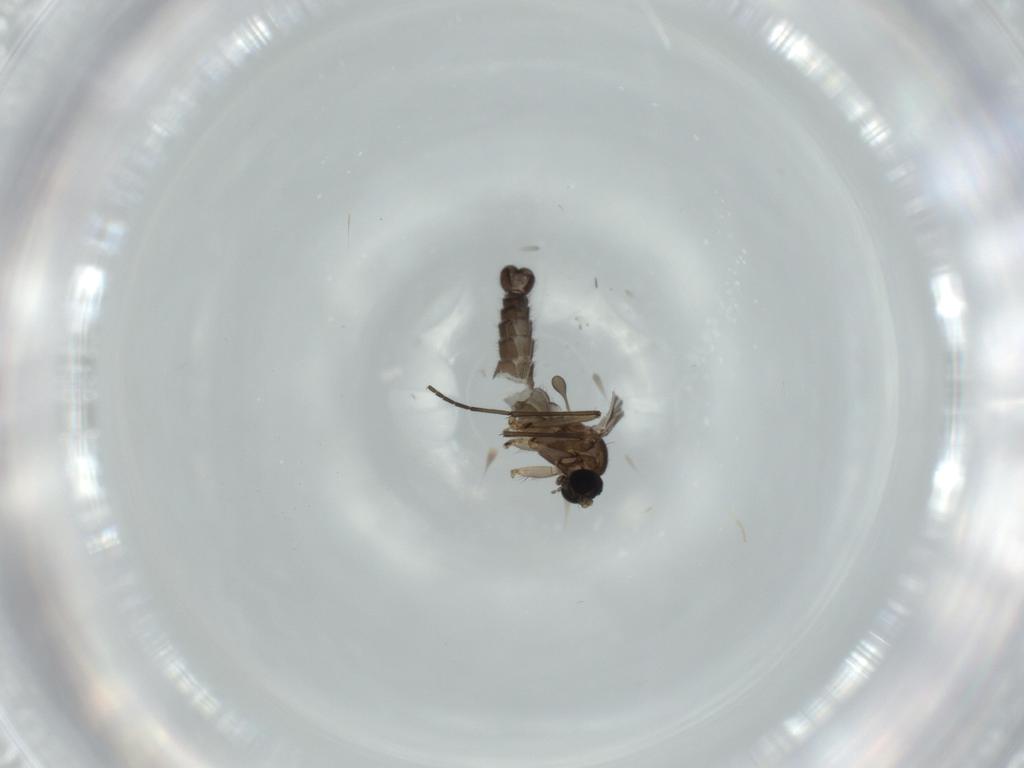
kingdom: Animalia
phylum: Arthropoda
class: Insecta
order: Diptera
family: Sciaridae
